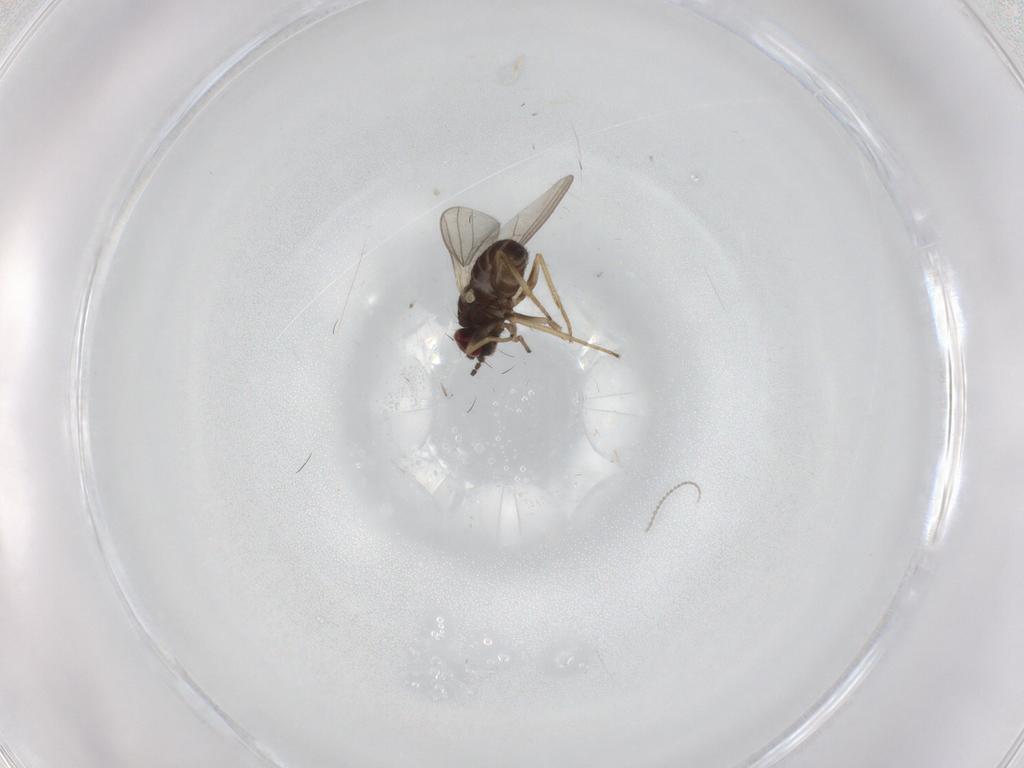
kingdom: Animalia
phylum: Arthropoda
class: Insecta
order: Diptera
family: Dolichopodidae
